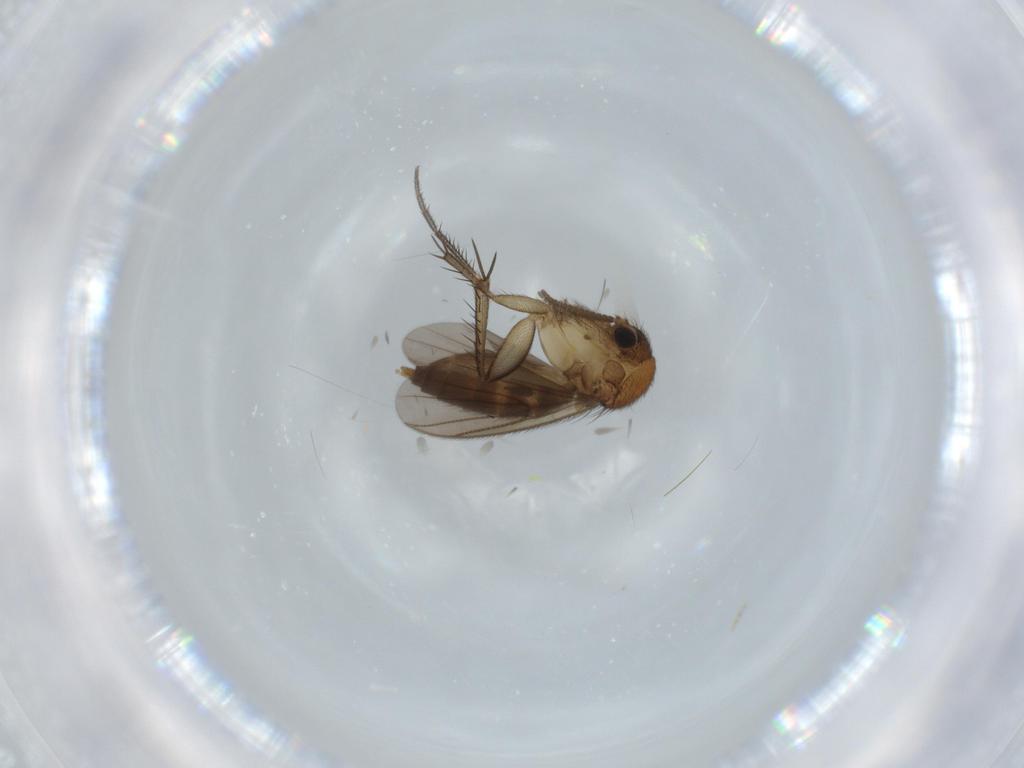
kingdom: Animalia
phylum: Arthropoda
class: Insecta
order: Diptera
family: Mycetophilidae
